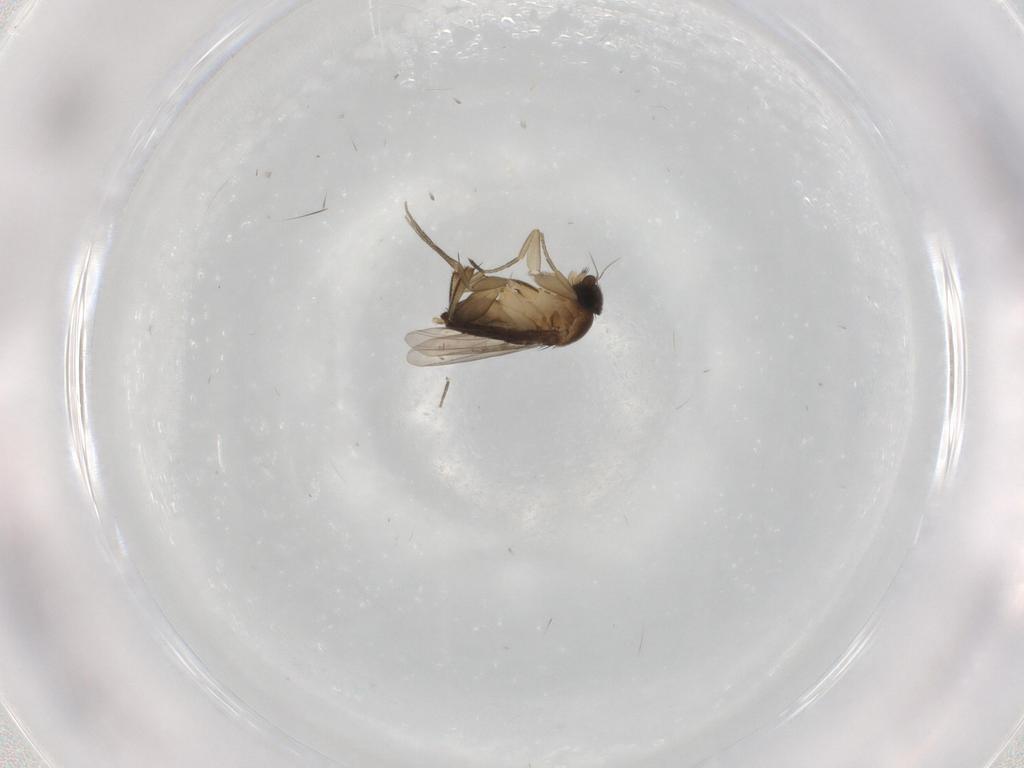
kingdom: Animalia
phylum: Arthropoda
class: Insecta
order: Diptera
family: Phoridae
